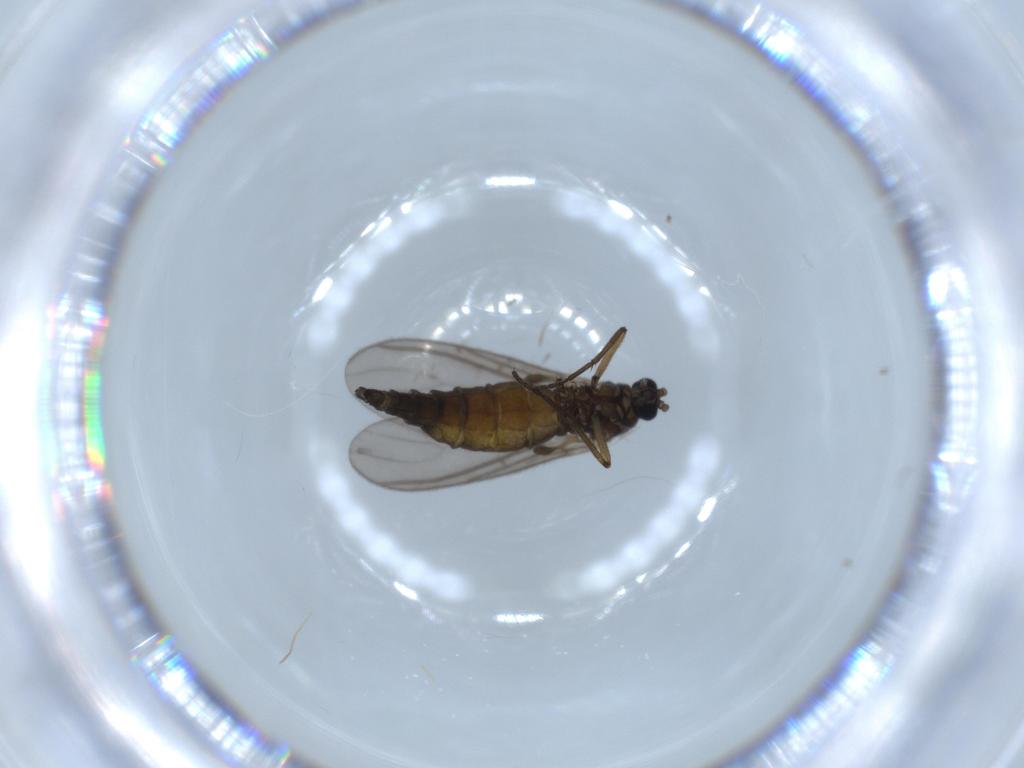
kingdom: Animalia
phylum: Arthropoda
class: Insecta
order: Diptera
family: Sciaridae
